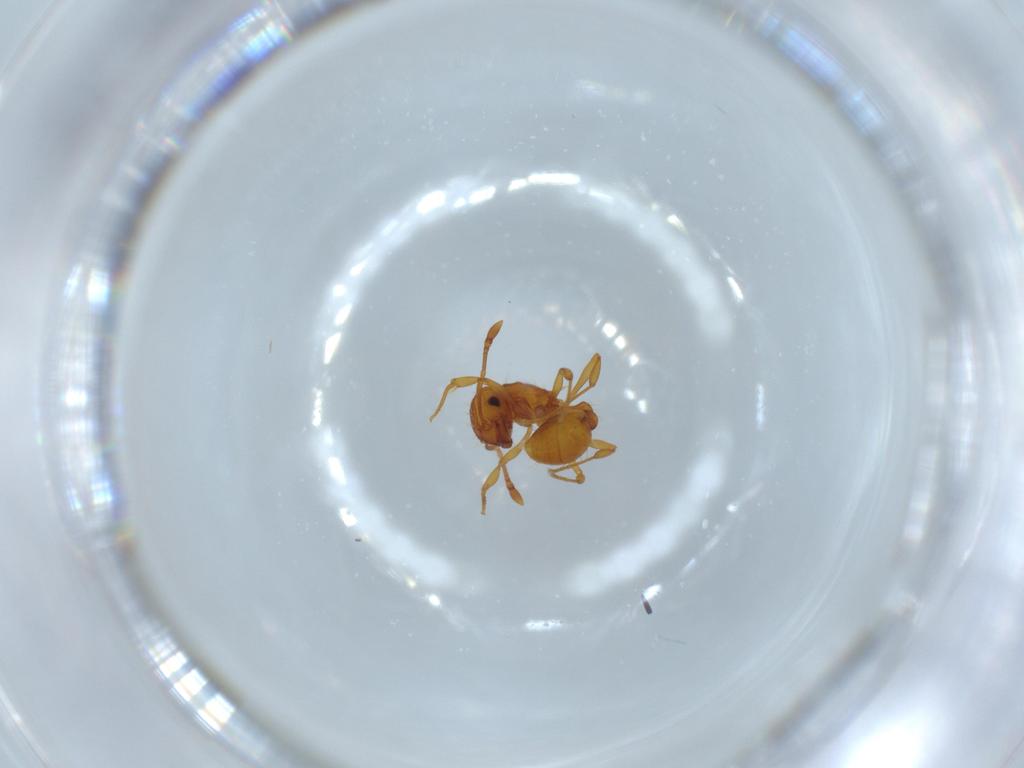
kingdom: Animalia
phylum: Arthropoda
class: Insecta
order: Hymenoptera
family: Formicidae
